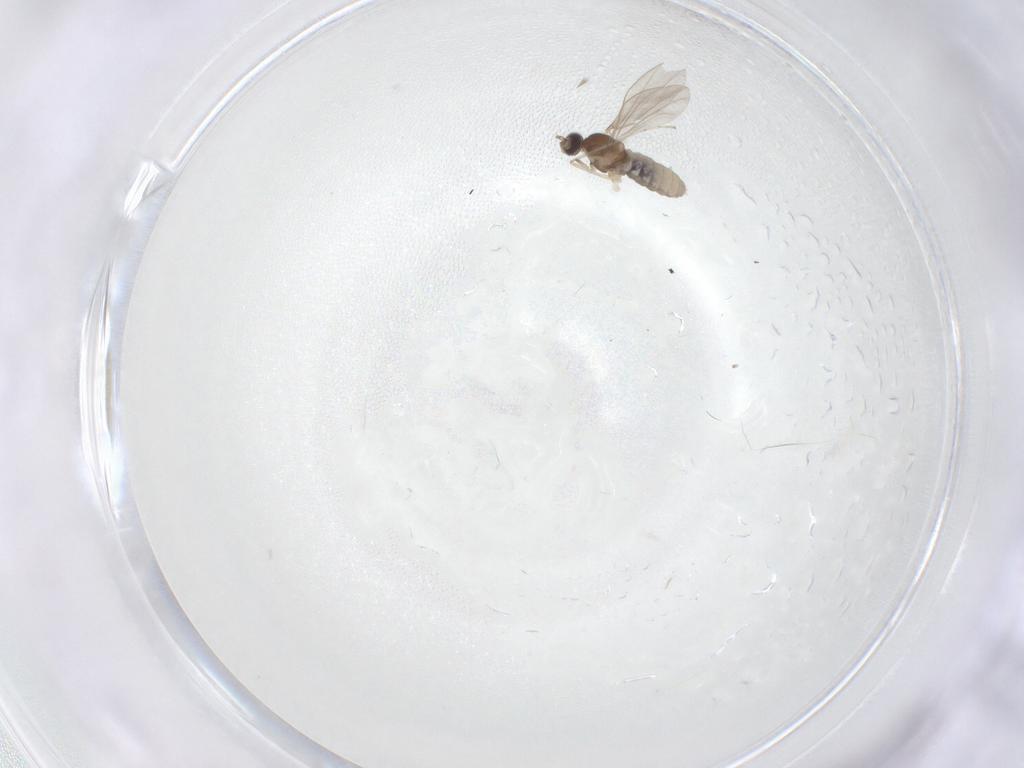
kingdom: Animalia
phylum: Arthropoda
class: Insecta
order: Diptera
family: Cecidomyiidae
